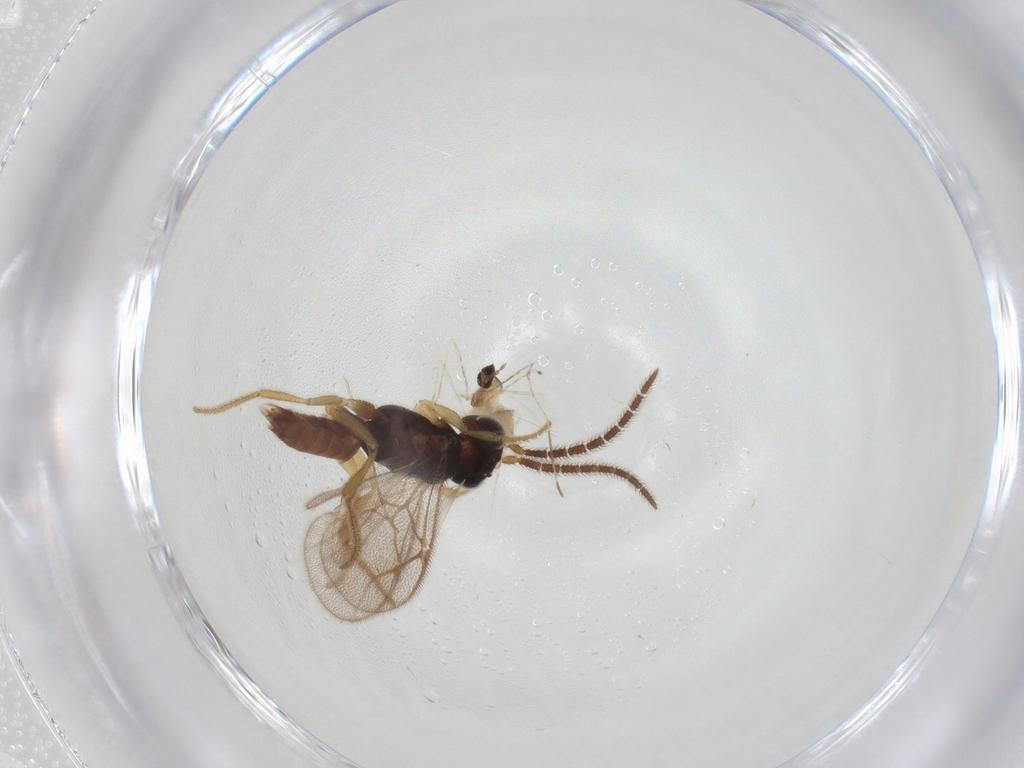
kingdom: Animalia
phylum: Arthropoda
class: Insecta
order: Hymenoptera
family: Dryinidae
